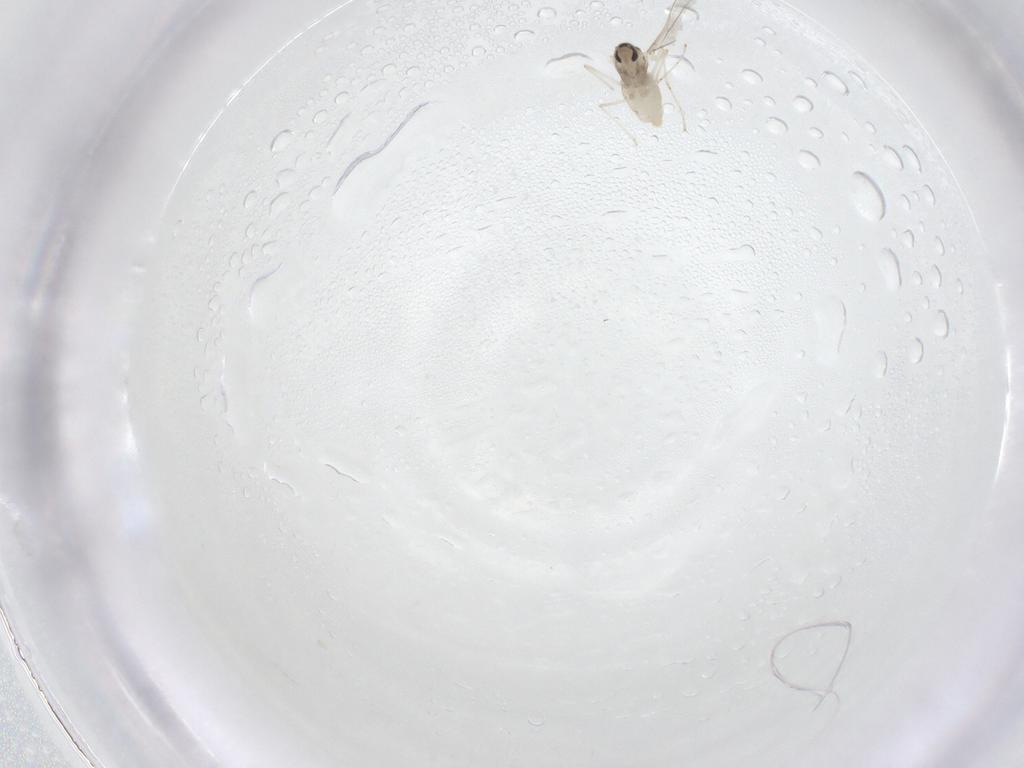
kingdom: Animalia
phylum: Arthropoda
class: Insecta
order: Diptera
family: Cecidomyiidae
